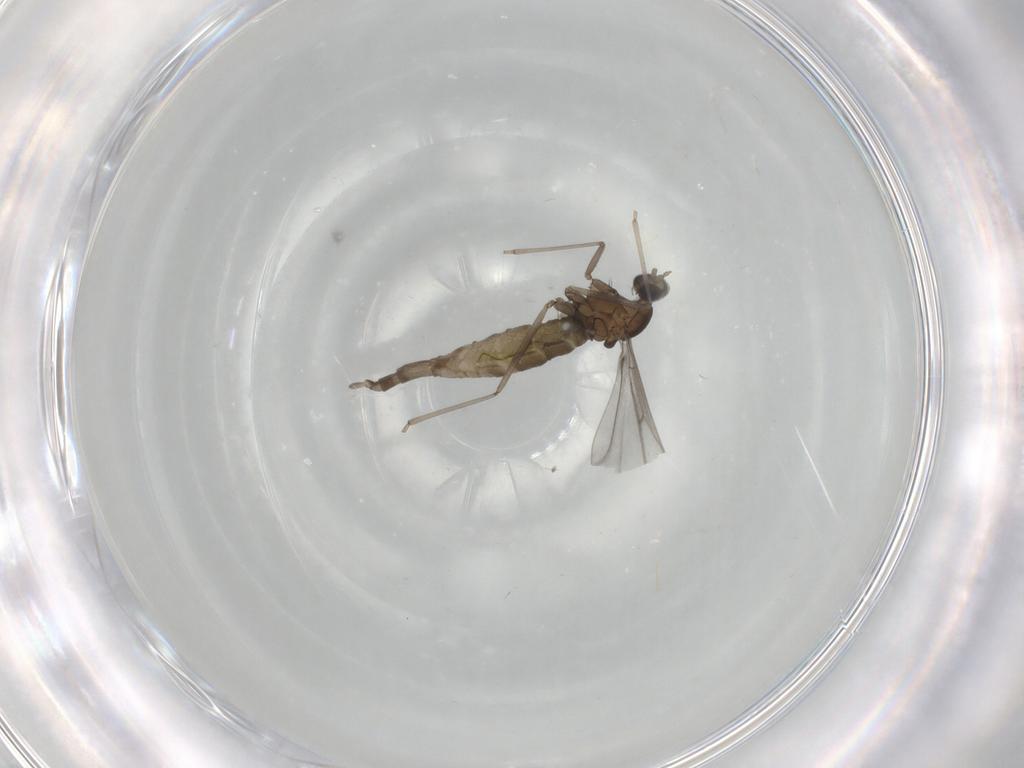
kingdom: Animalia
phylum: Arthropoda
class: Insecta
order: Diptera
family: Cecidomyiidae
